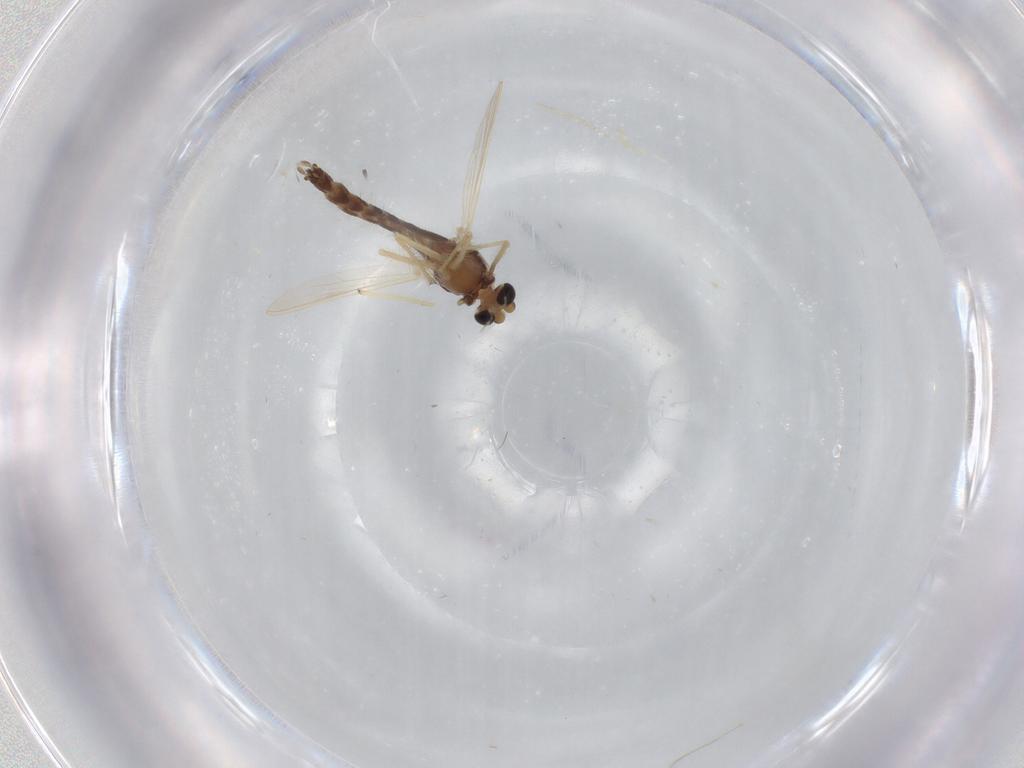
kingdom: Animalia
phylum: Arthropoda
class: Insecta
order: Diptera
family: Chironomidae
